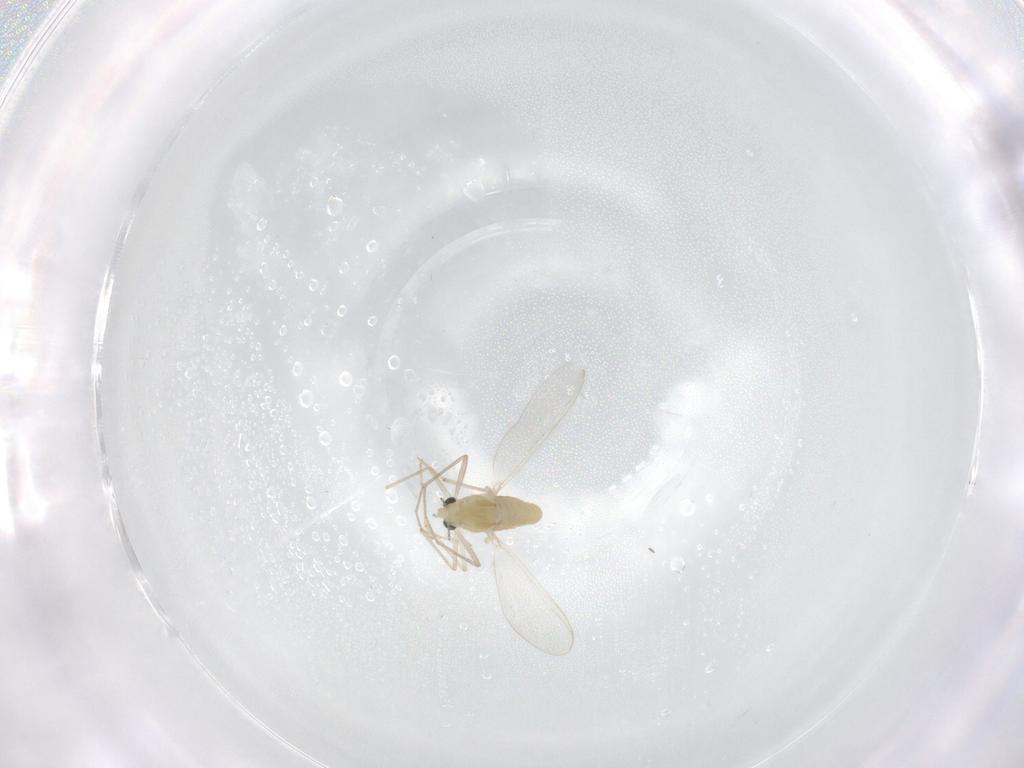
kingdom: Animalia
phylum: Arthropoda
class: Insecta
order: Diptera
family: Chironomidae
